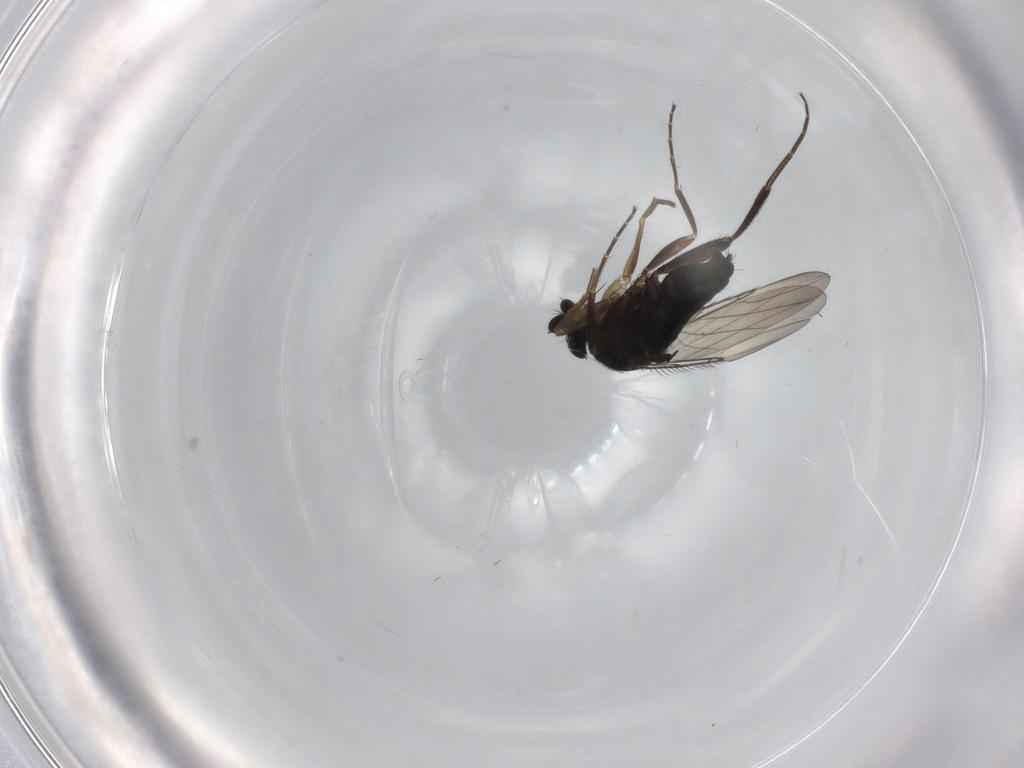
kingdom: Animalia
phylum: Arthropoda
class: Insecta
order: Diptera
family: Phoridae
